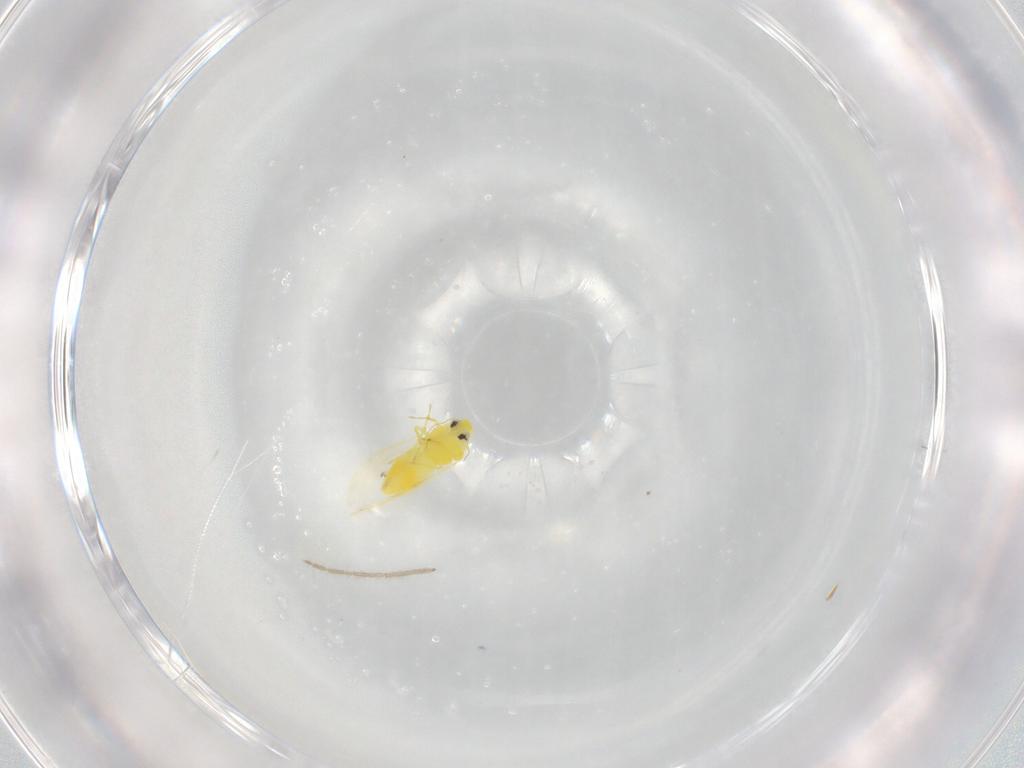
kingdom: Animalia
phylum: Arthropoda
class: Insecta
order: Hemiptera
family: Aleyrodidae
